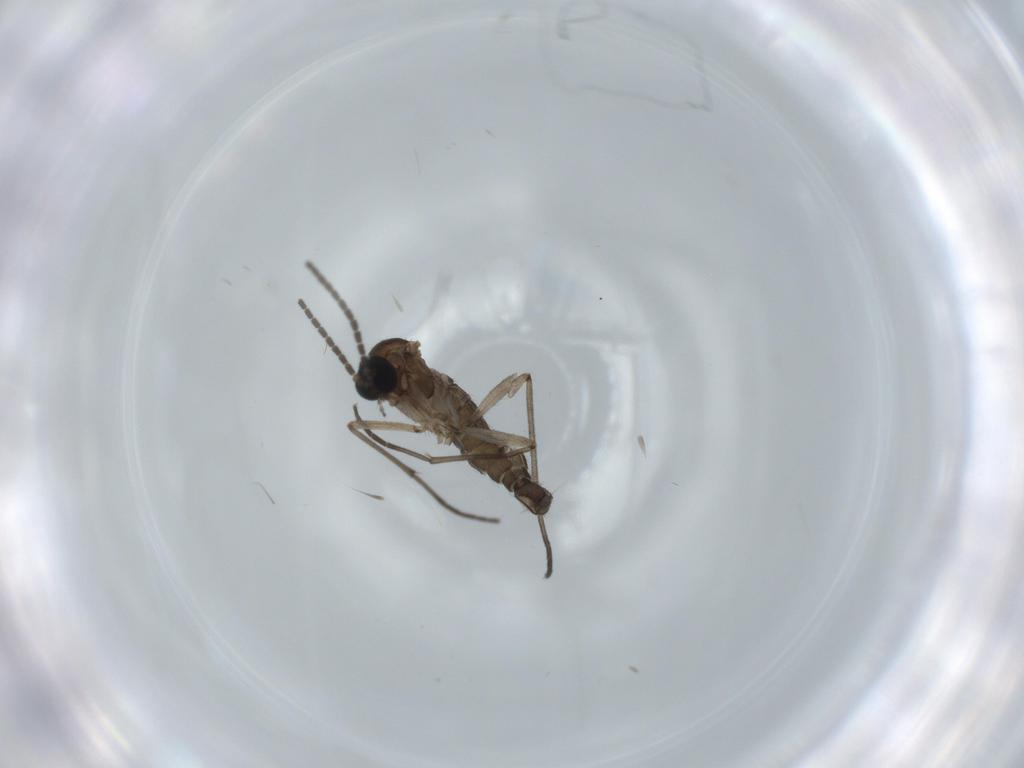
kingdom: Animalia
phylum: Arthropoda
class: Insecta
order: Diptera
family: Sciaridae
